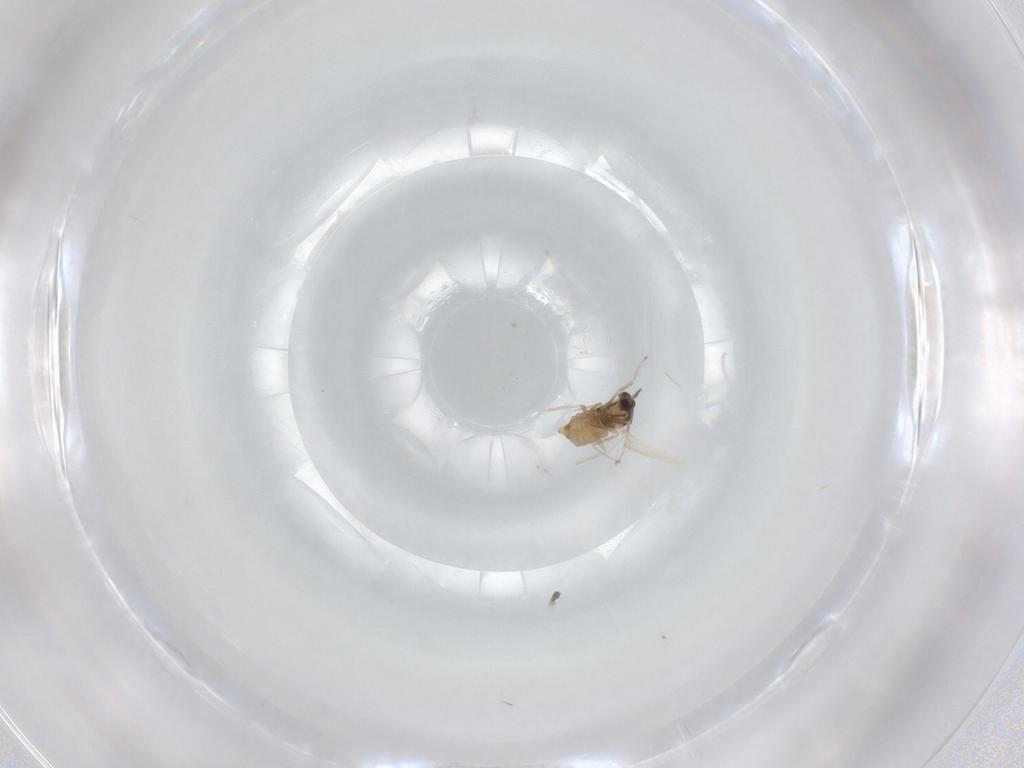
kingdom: Animalia
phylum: Arthropoda
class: Insecta
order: Diptera
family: Cecidomyiidae
